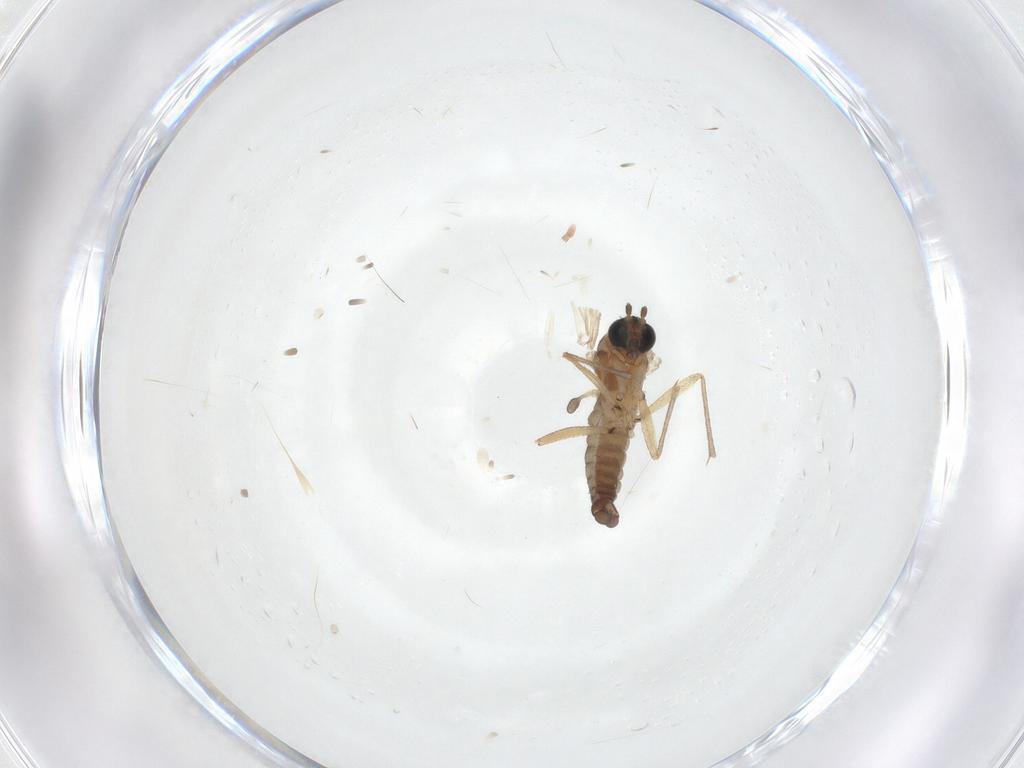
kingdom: Animalia
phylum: Arthropoda
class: Insecta
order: Diptera
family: Sciaridae
